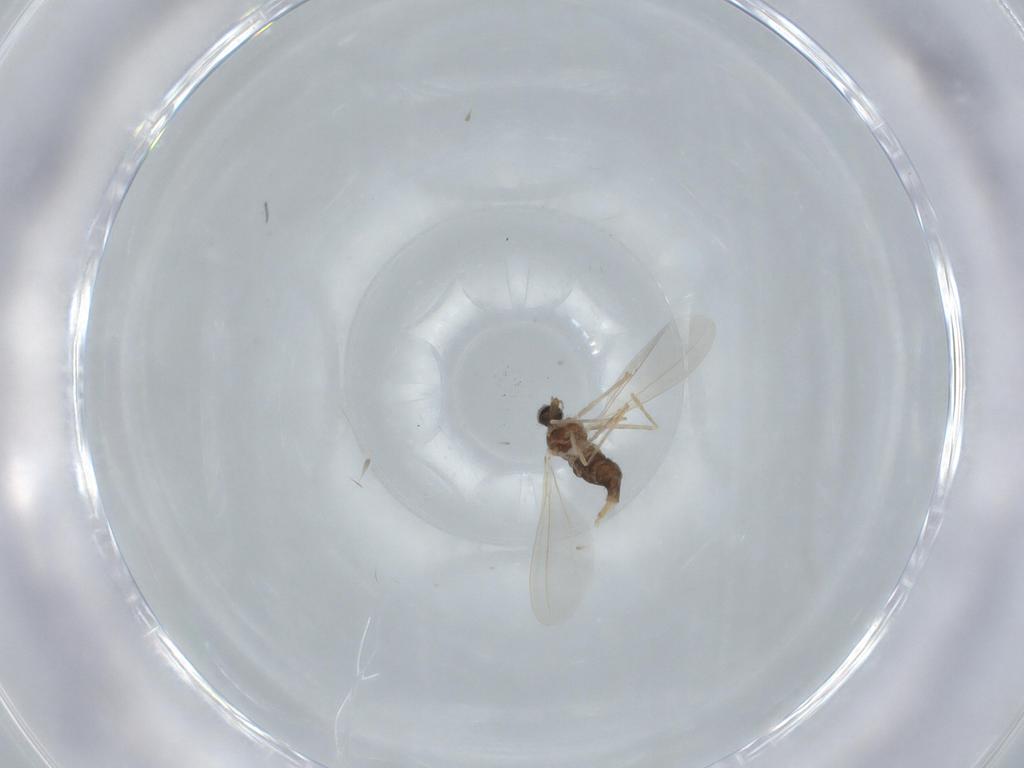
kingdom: Animalia
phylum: Arthropoda
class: Insecta
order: Diptera
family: Cecidomyiidae
